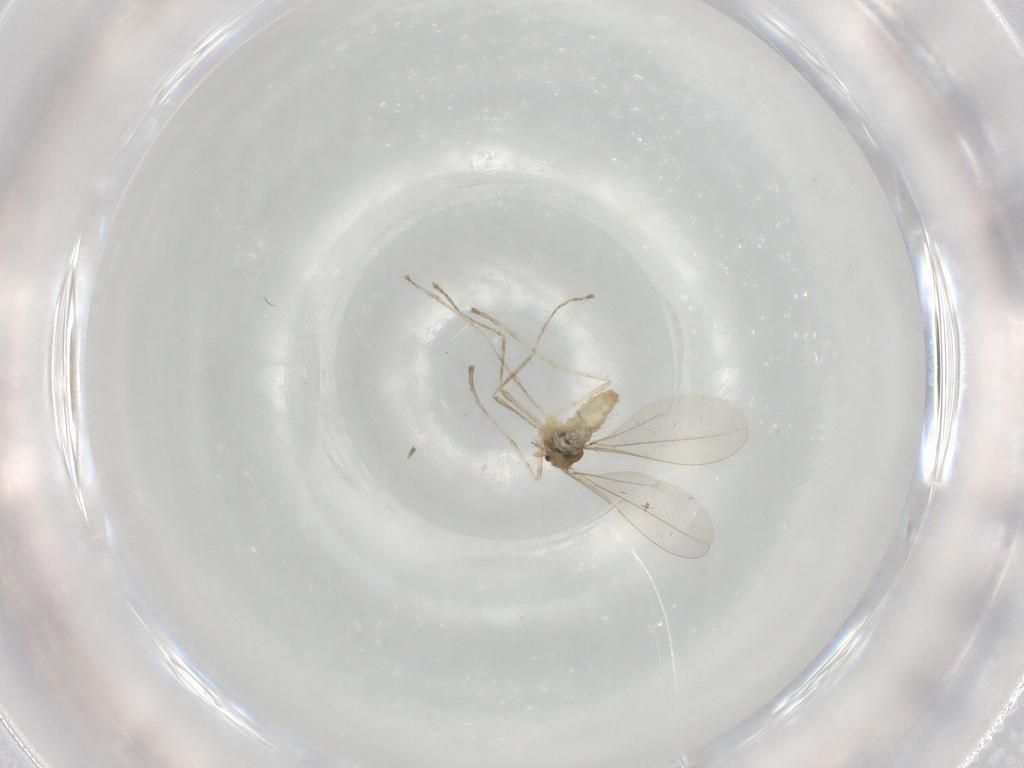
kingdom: Animalia
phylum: Arthropoda
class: Insecta
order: Diptera
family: Cecidomyiidae
